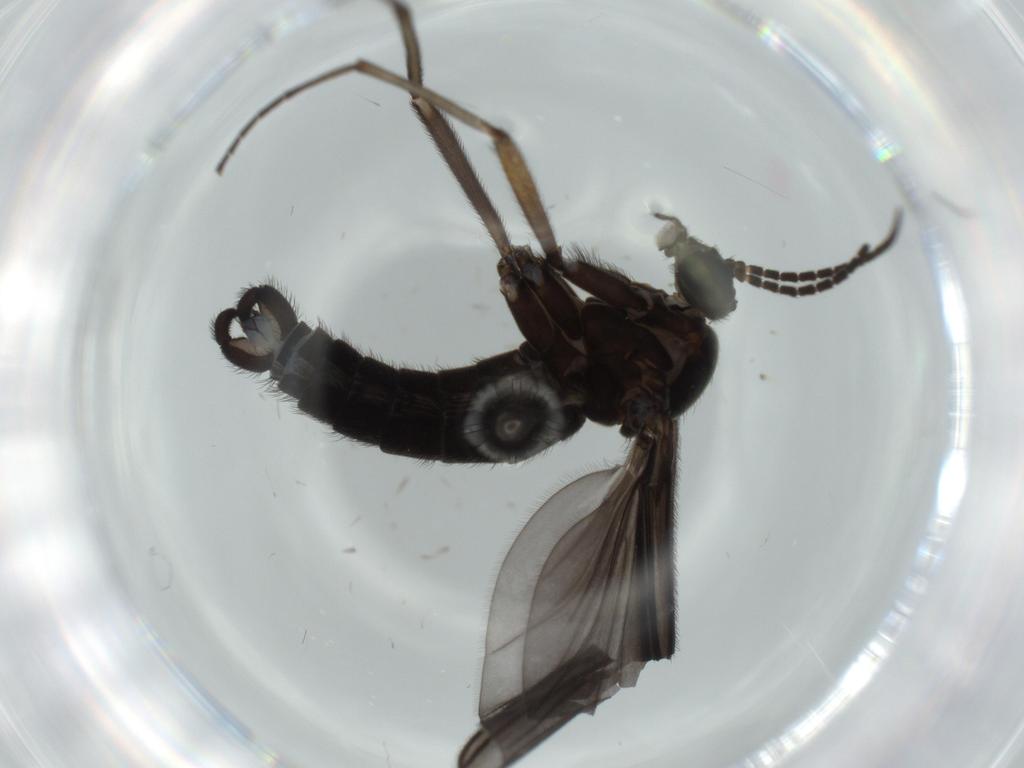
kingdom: Animalia
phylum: Arthropoda
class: Insecta
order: Diptera
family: Sciaridae
